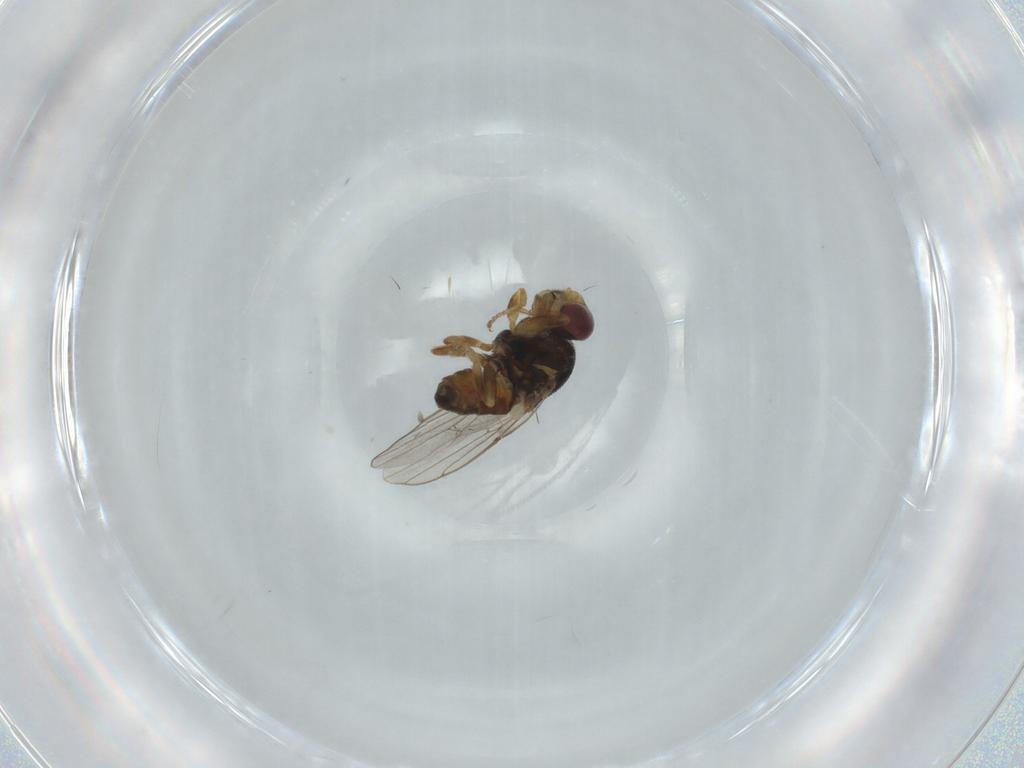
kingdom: Animalia
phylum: Arthropoda
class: Insecta
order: Diptera
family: Chloropidae
